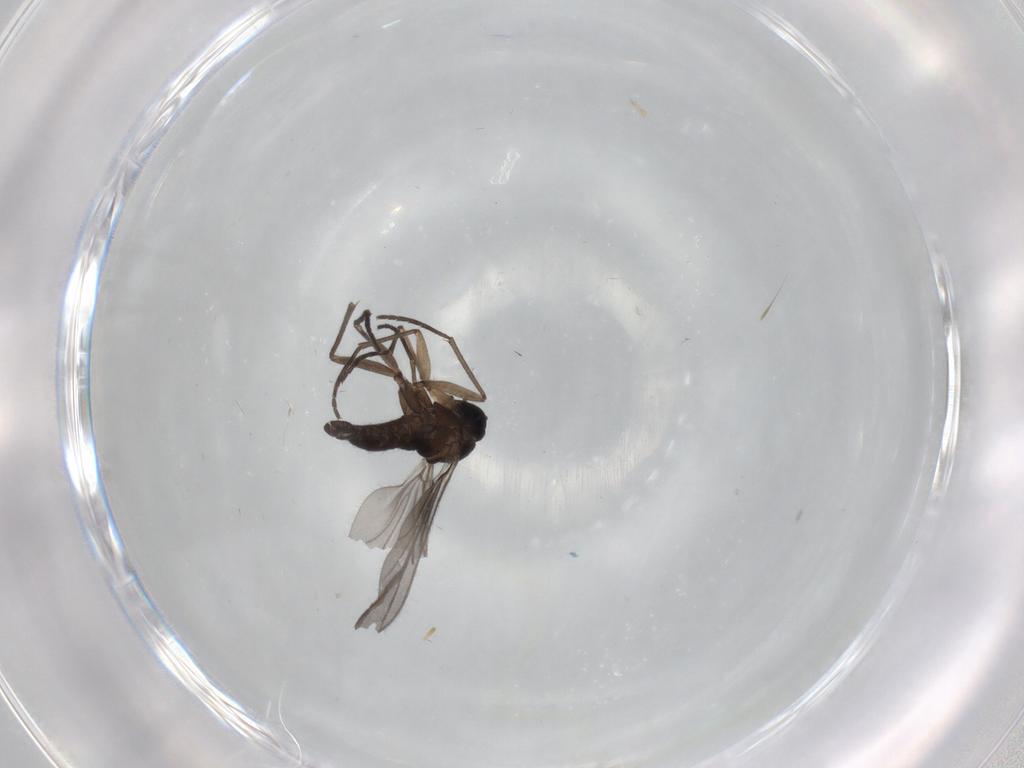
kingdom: Animalia
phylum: Arthropoda
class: Insecta
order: Diptera
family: Sciaridae
